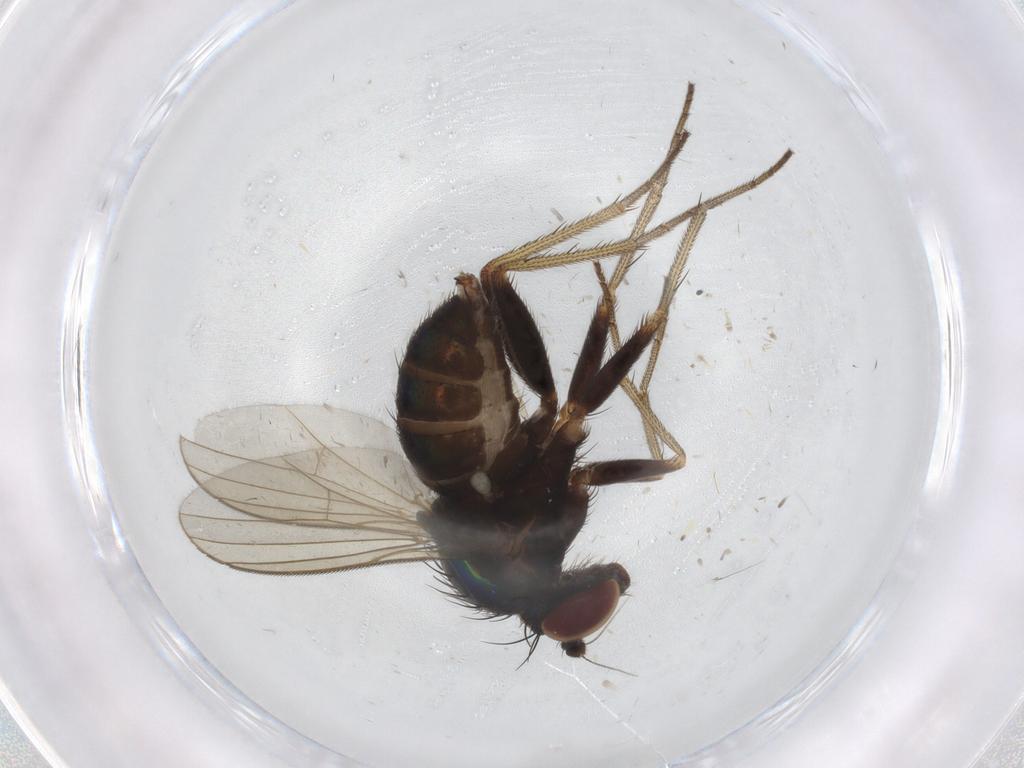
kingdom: Animalia
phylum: Arthropoda
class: Insecta
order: Diptera
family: Dolichopodidae
